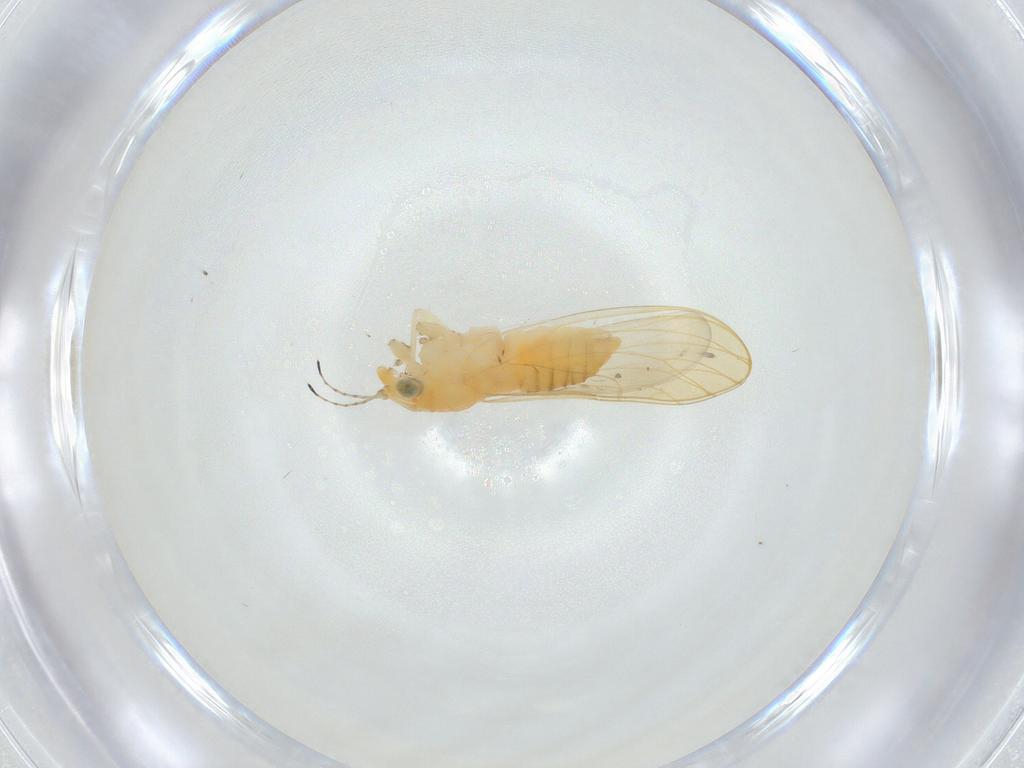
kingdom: Animalia
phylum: Arthropoda
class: Insecta
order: Hemiptera
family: Aphalaridae
